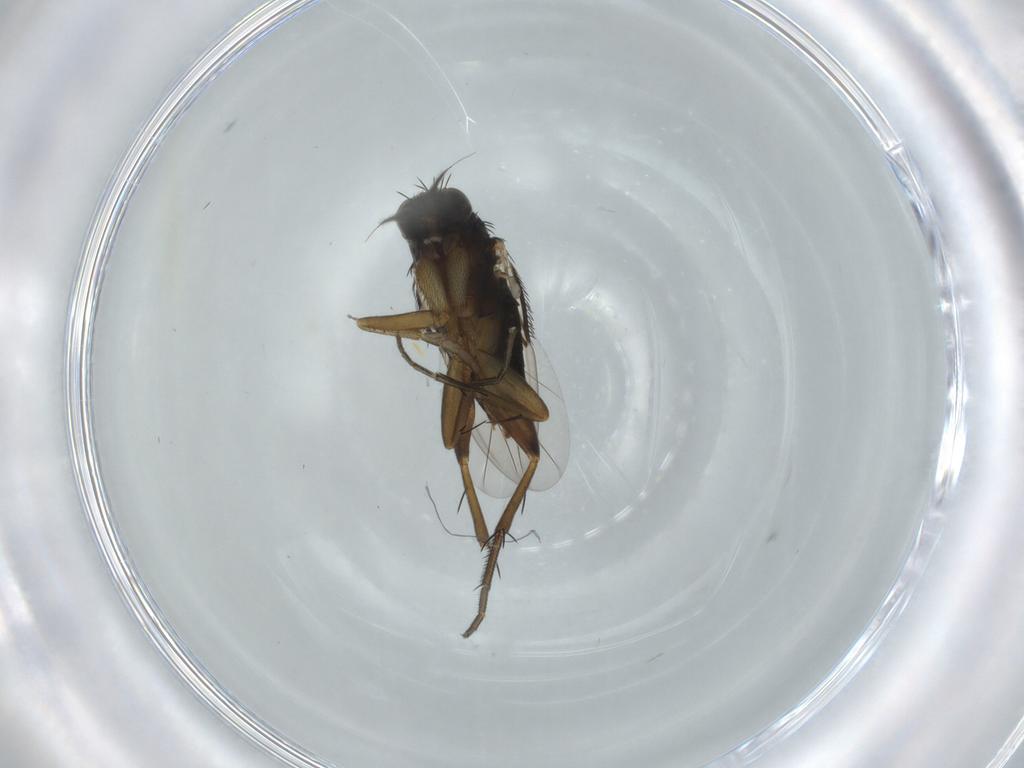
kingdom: Animalia
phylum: Arthropoda
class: Insecta
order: Diptera
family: Phoridae
